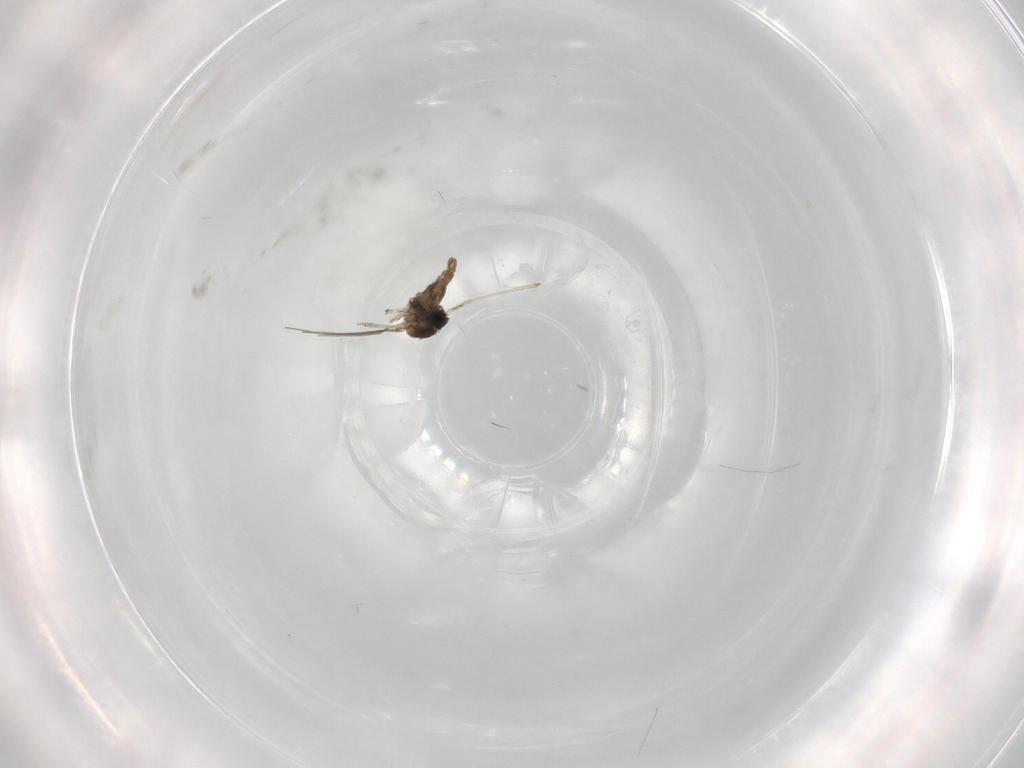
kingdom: Animalia
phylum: Arthropoda
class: Insecta
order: Diptera
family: Cecidomyiidae
